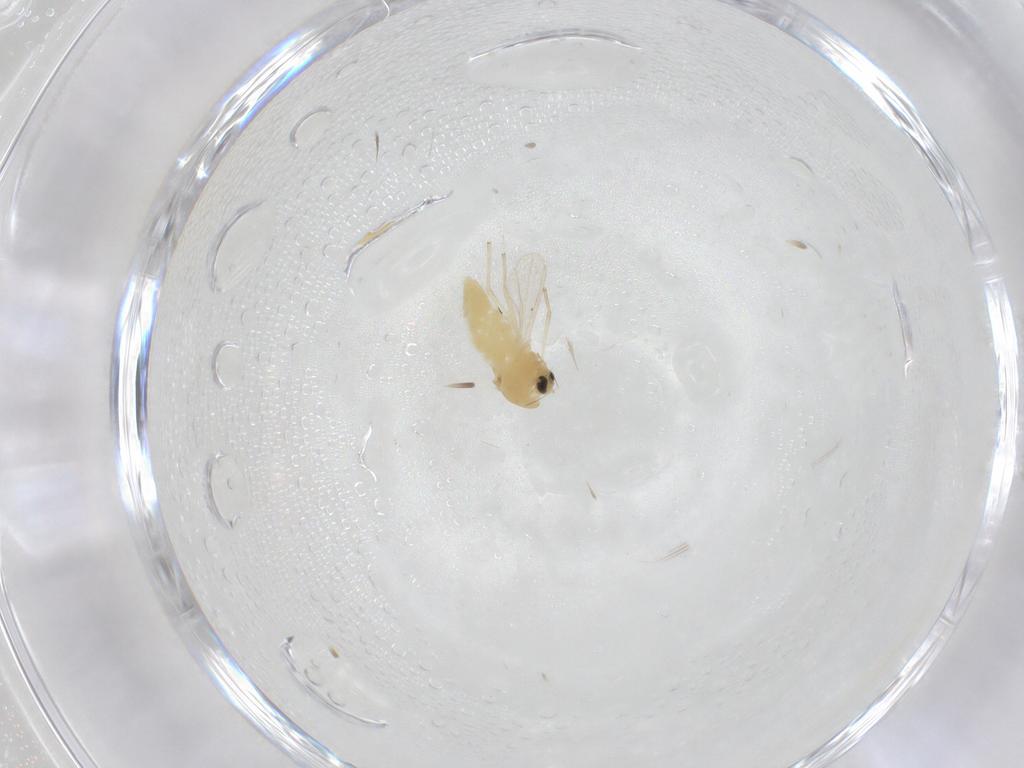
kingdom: Animalia
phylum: Arthropoda
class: Insecta
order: Diptera
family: Chironomidae
